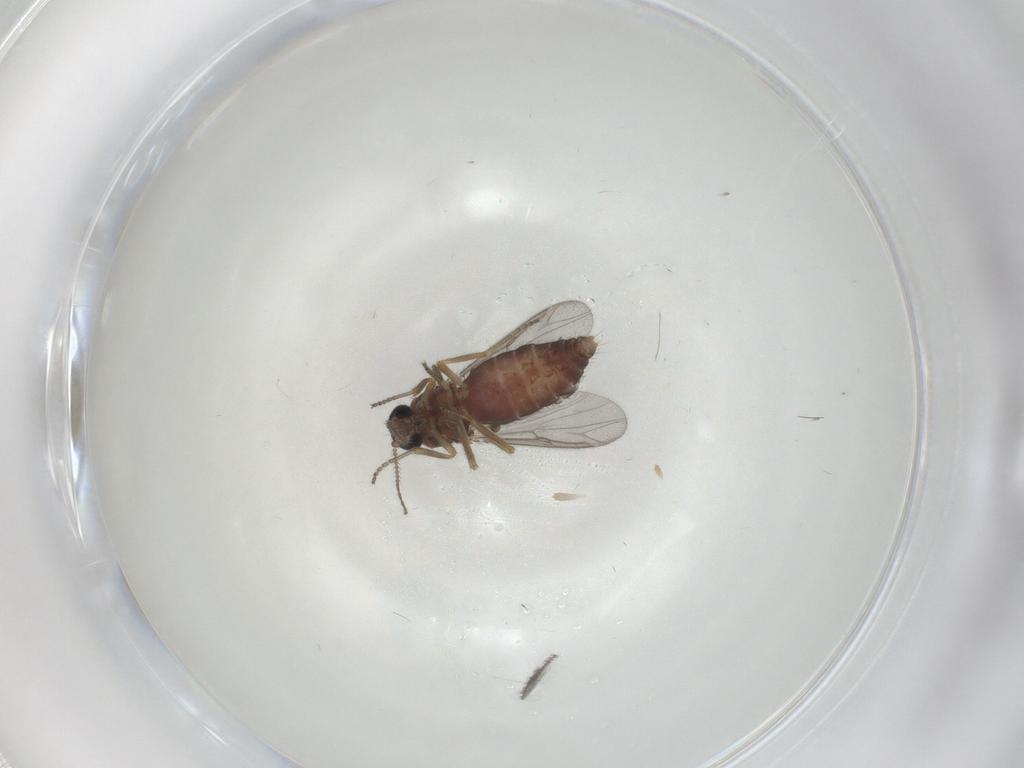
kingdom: Animalia
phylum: Arthropoda
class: Insecta
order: Diptera
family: Ceratopogonidae
